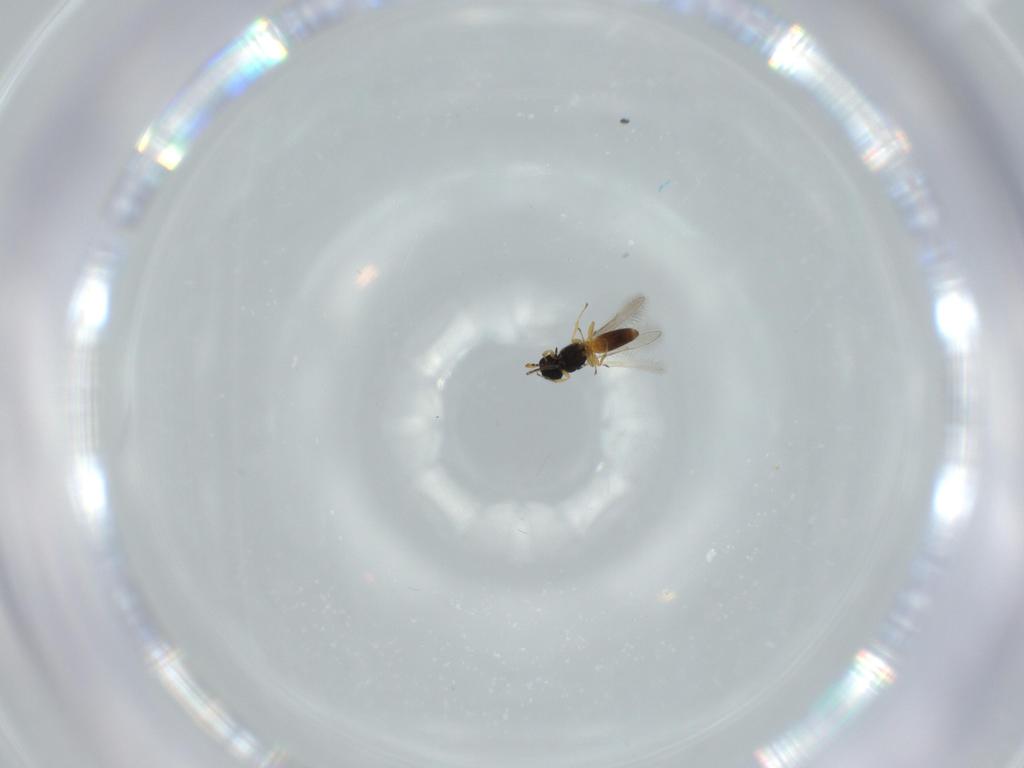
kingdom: Animalia
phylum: Arthropoda
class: Insecta
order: Hymenoptera
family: Scelionidae
